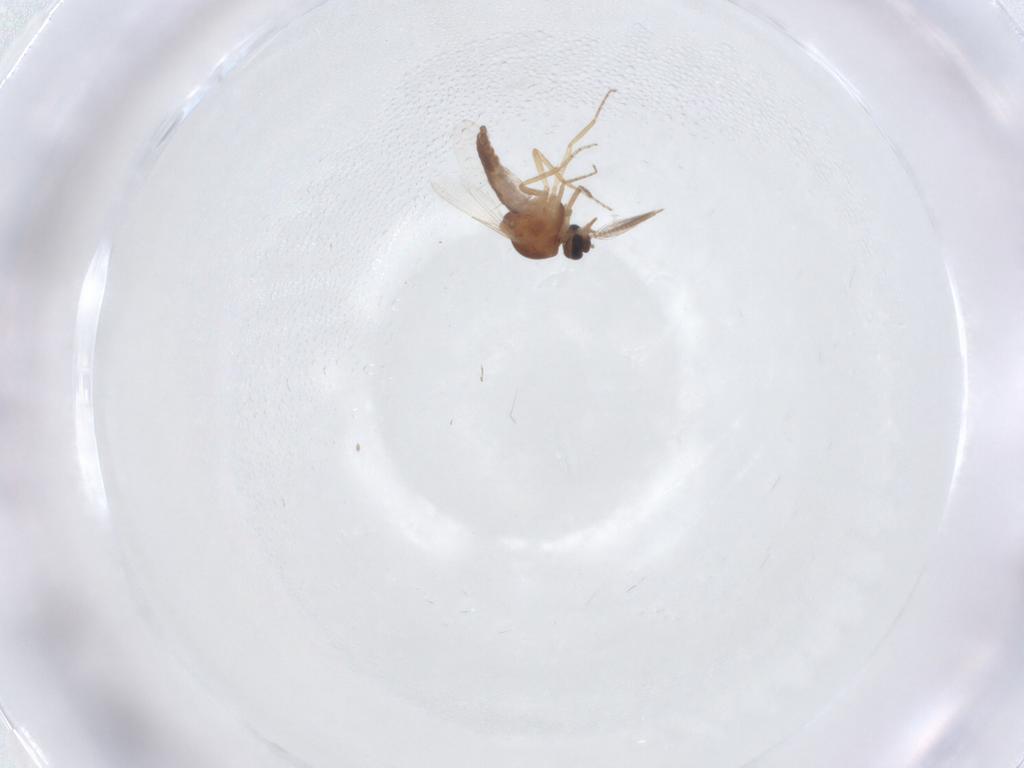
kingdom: Animalia
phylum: Arthropoda
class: Insecta
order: Diptera
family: Ceratopogonidae
